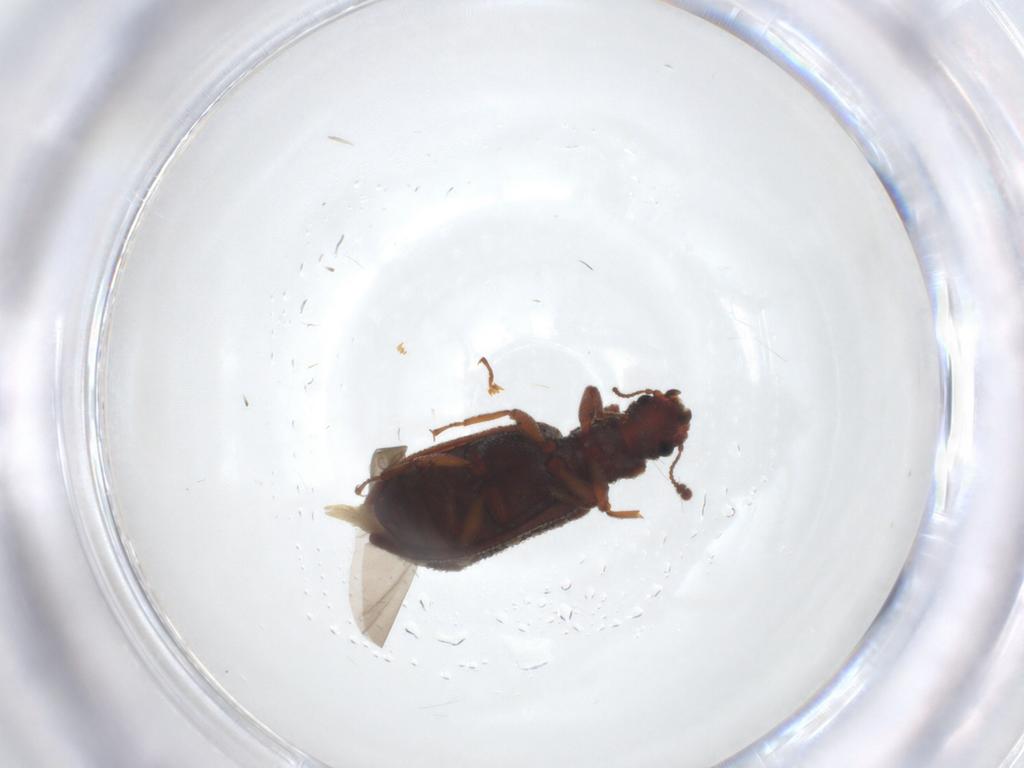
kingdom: Animalia
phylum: Arthropoda
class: Insecta
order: Coleoptera
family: Zopheridae
